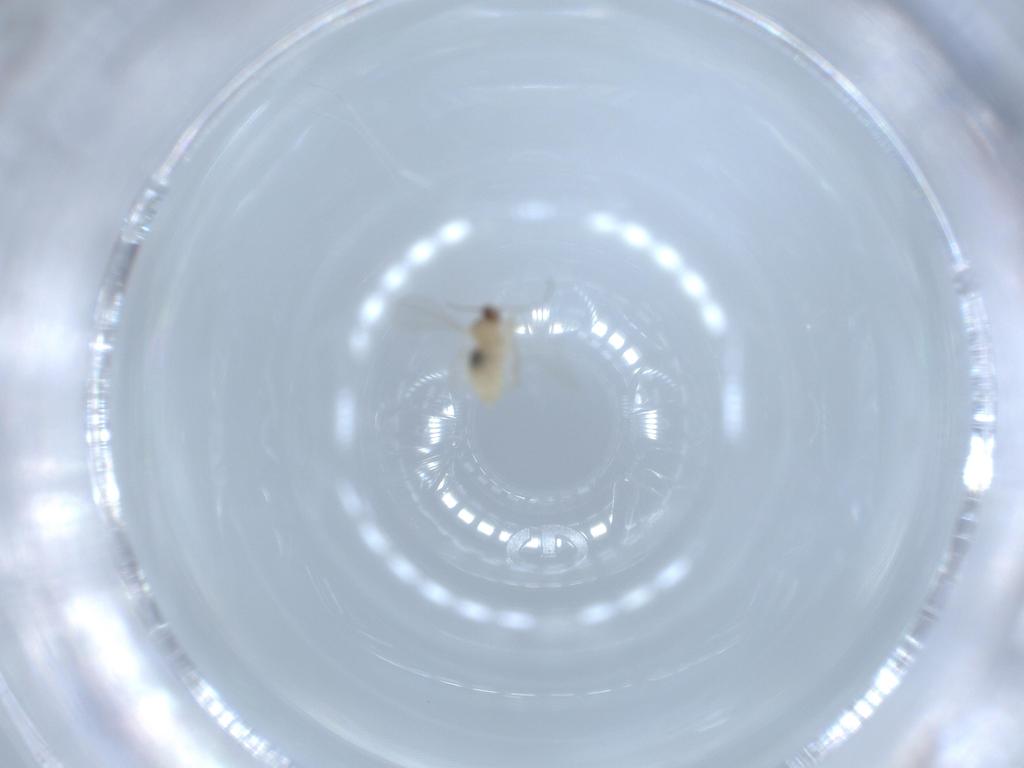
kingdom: Animalia
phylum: Arthropoda
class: Insecta
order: Diptera
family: Cecidomyiidae
